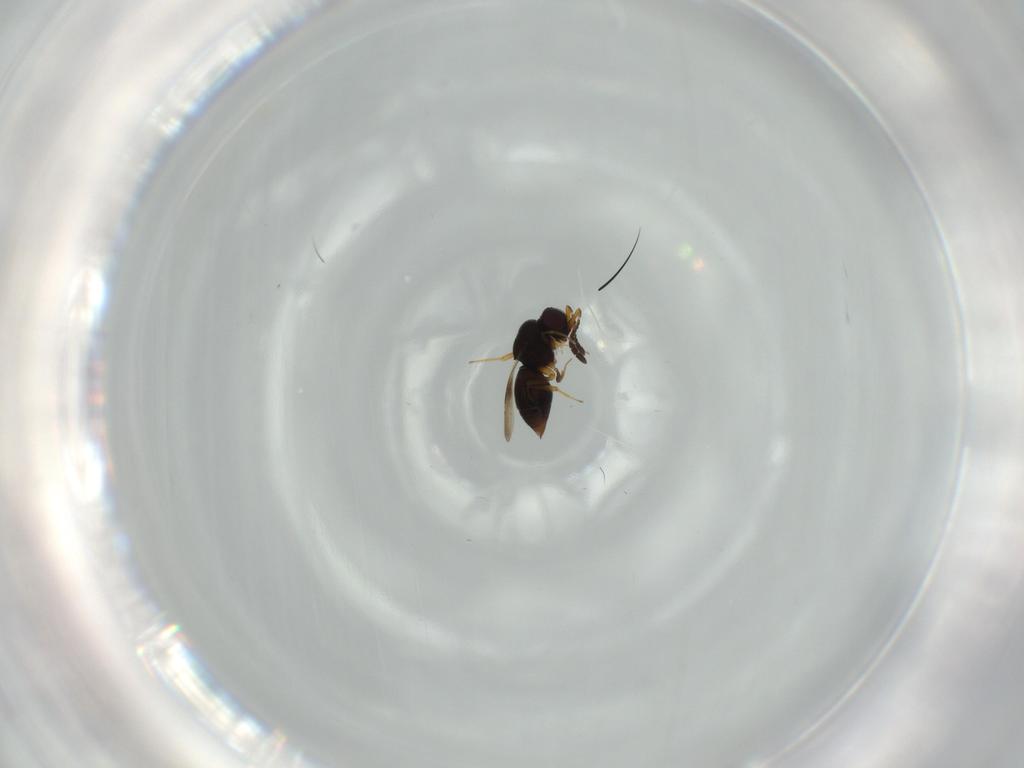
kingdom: Animalia
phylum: Arthropoda
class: Insecta
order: Hymenoptera
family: Ceraphronidae
